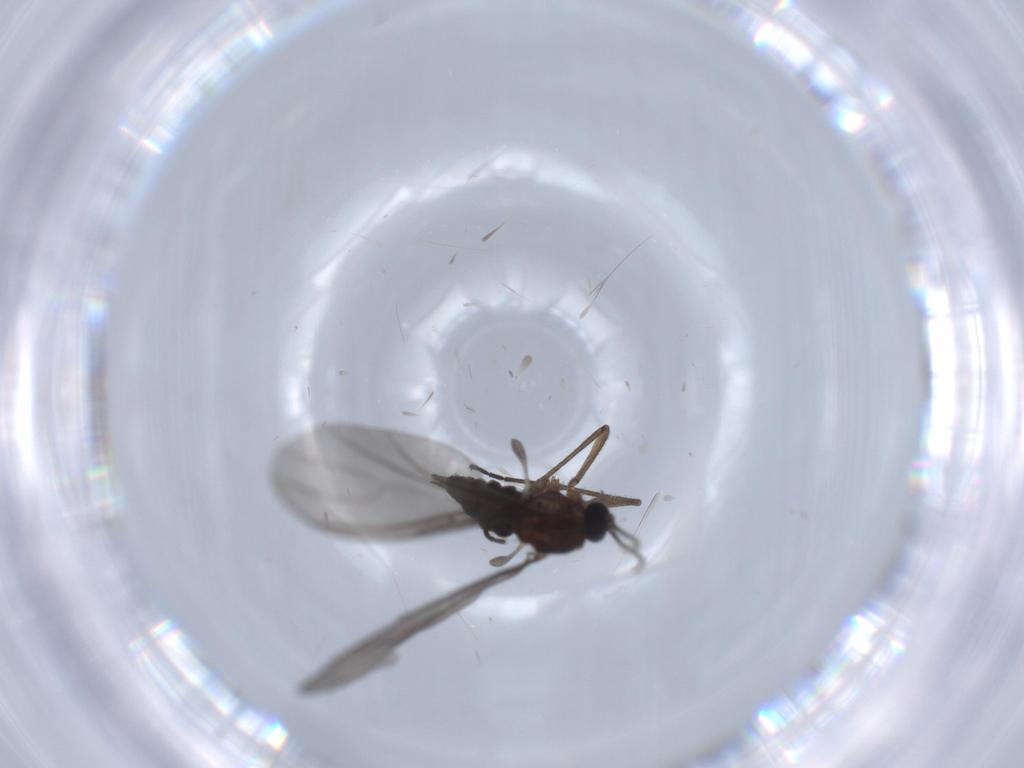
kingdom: Animalia
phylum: Arthropoda
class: Insecta
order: Diptera
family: Sciaridae
